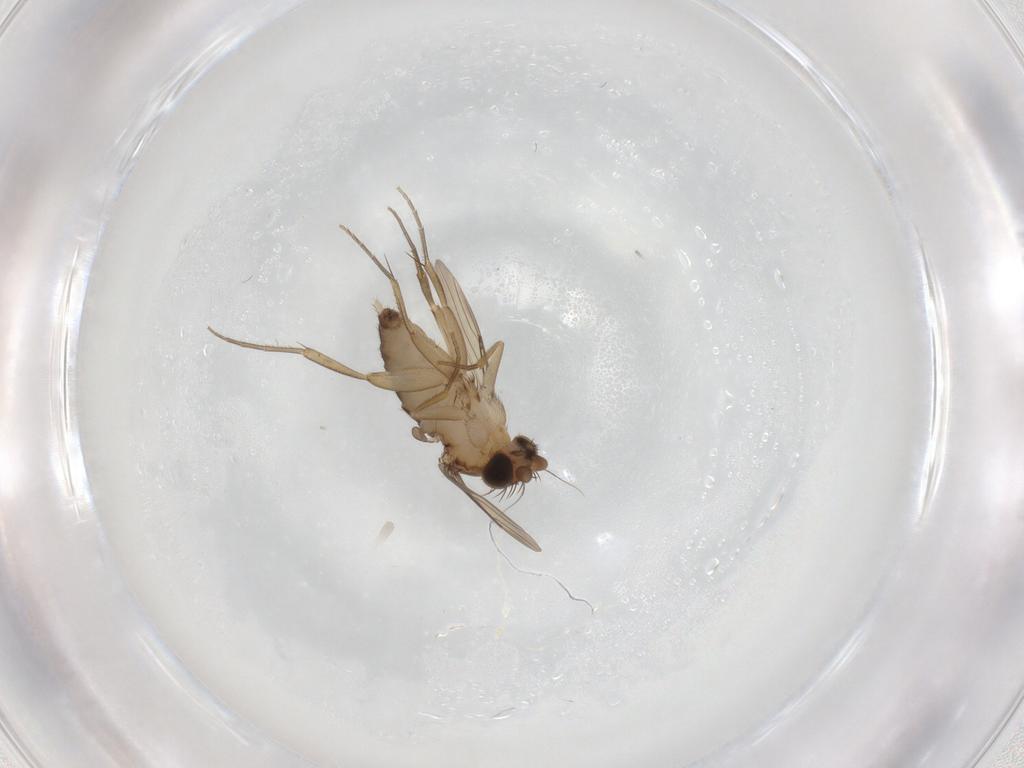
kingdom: Animalia
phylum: Arthropoda
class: Insecta
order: Diptera
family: Phoridae
